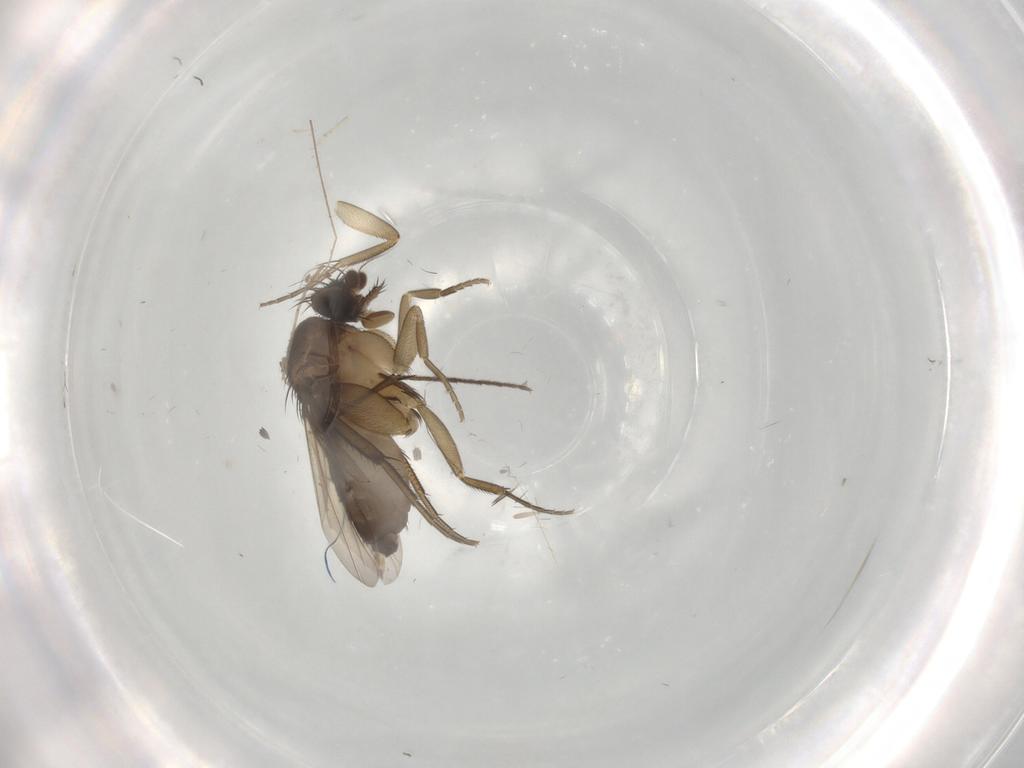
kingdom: Animalia
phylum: Arthropoda
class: Insecta
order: Diptera
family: Phoridae
